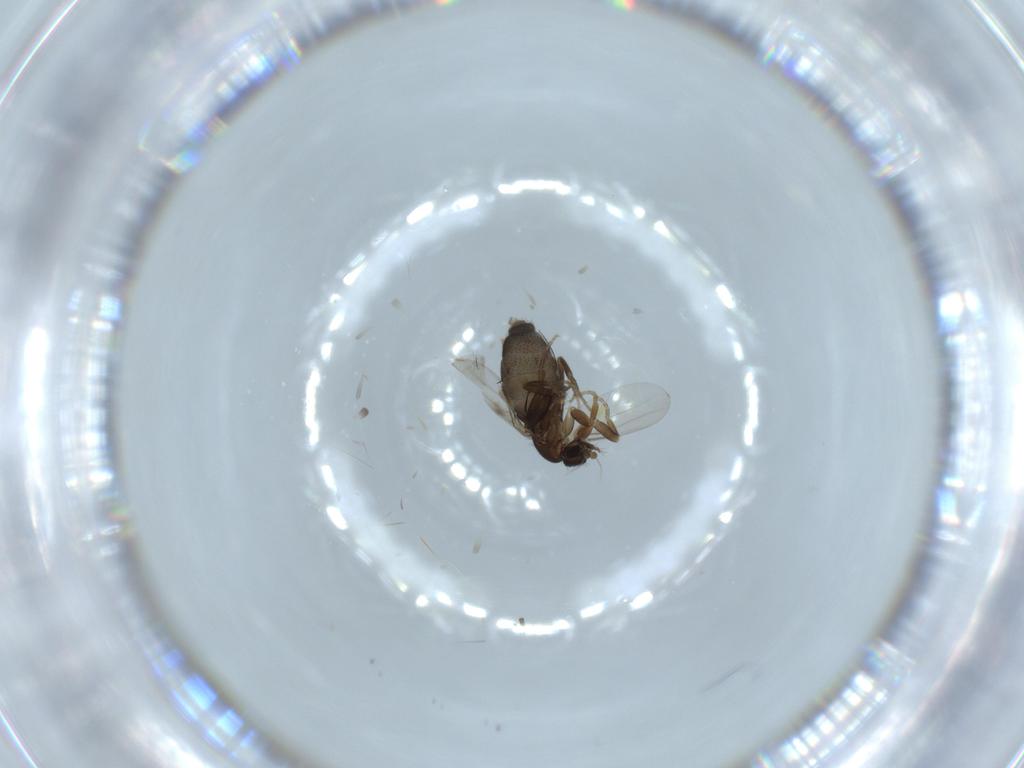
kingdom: Animalia
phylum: Arthropoda
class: Insecta
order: Diptera
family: Phoridae
